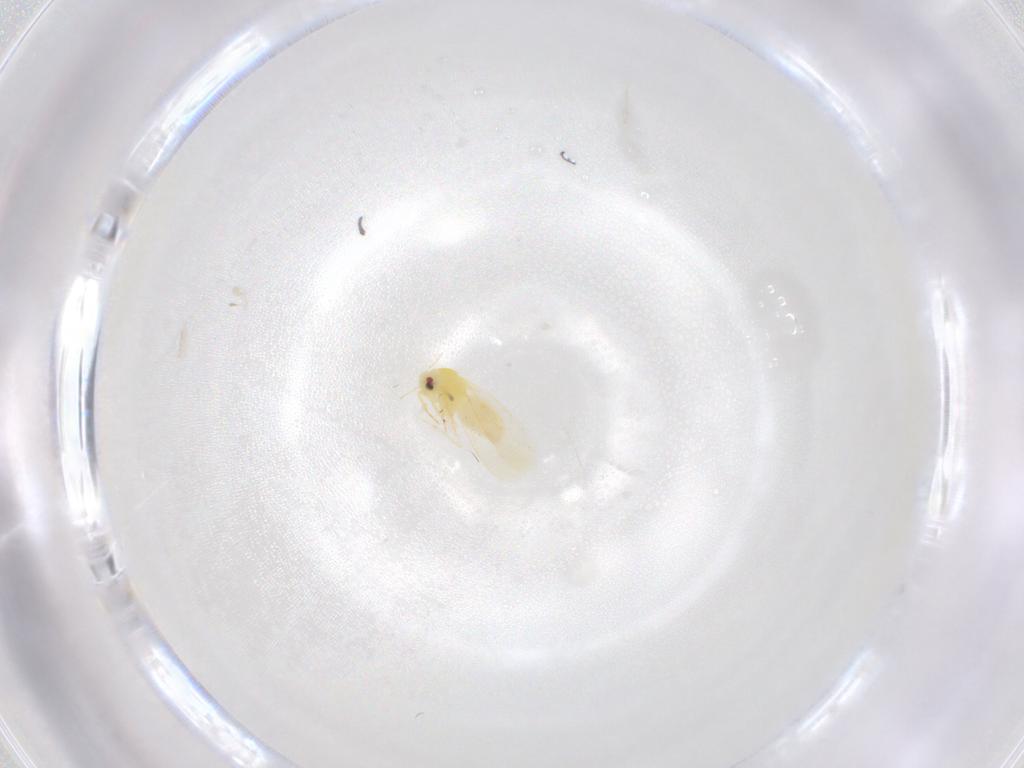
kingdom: Animalia
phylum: Arthropoda
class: Insecta
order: Hemiptera
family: Aleyrodidae
